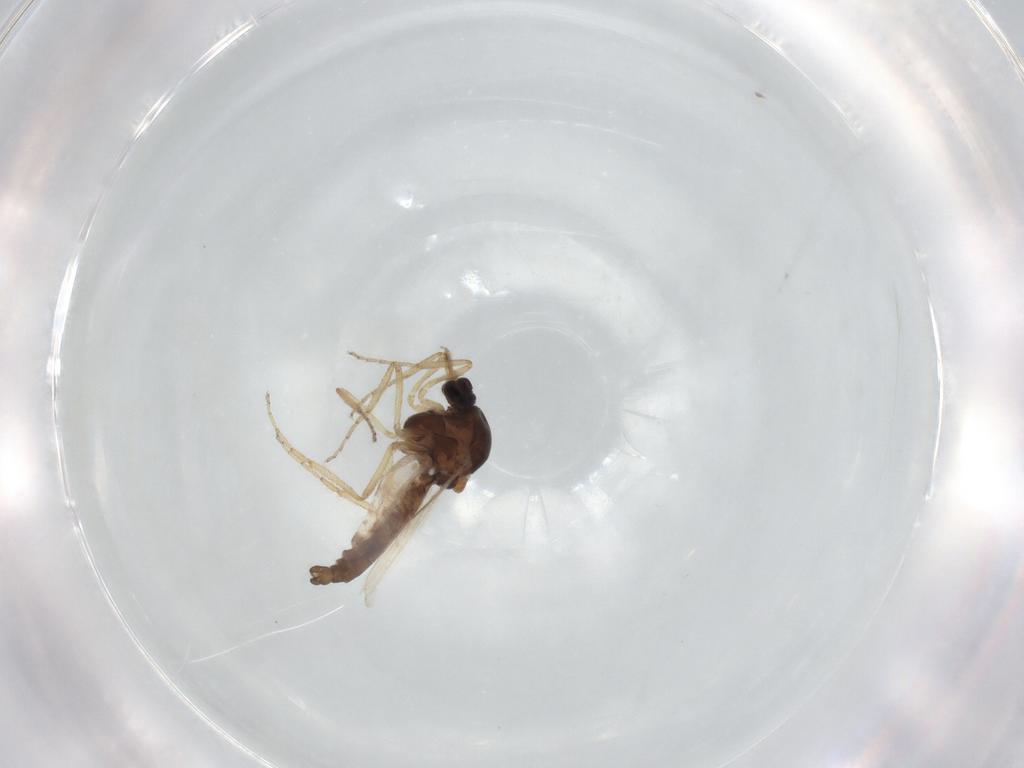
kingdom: Animalia
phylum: Arthropoda
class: Insecta
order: Diptera
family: Ceratopogonidae
